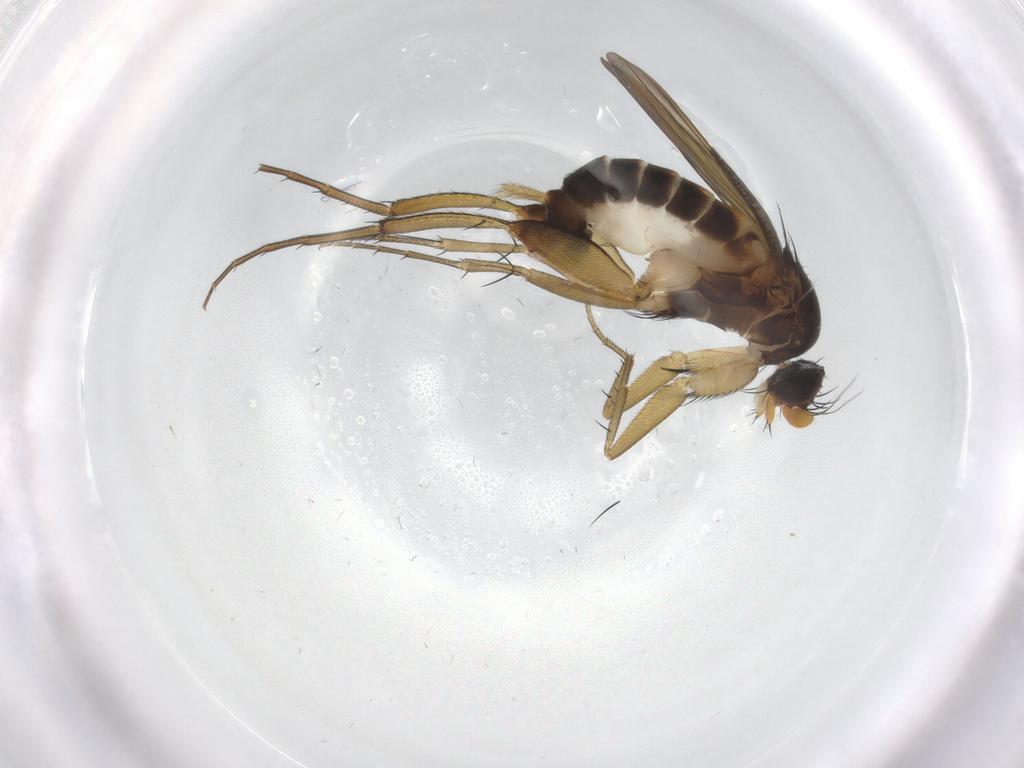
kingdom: Animalia
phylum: Arthropoda
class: Insecta
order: Diptera
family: Phoridae
